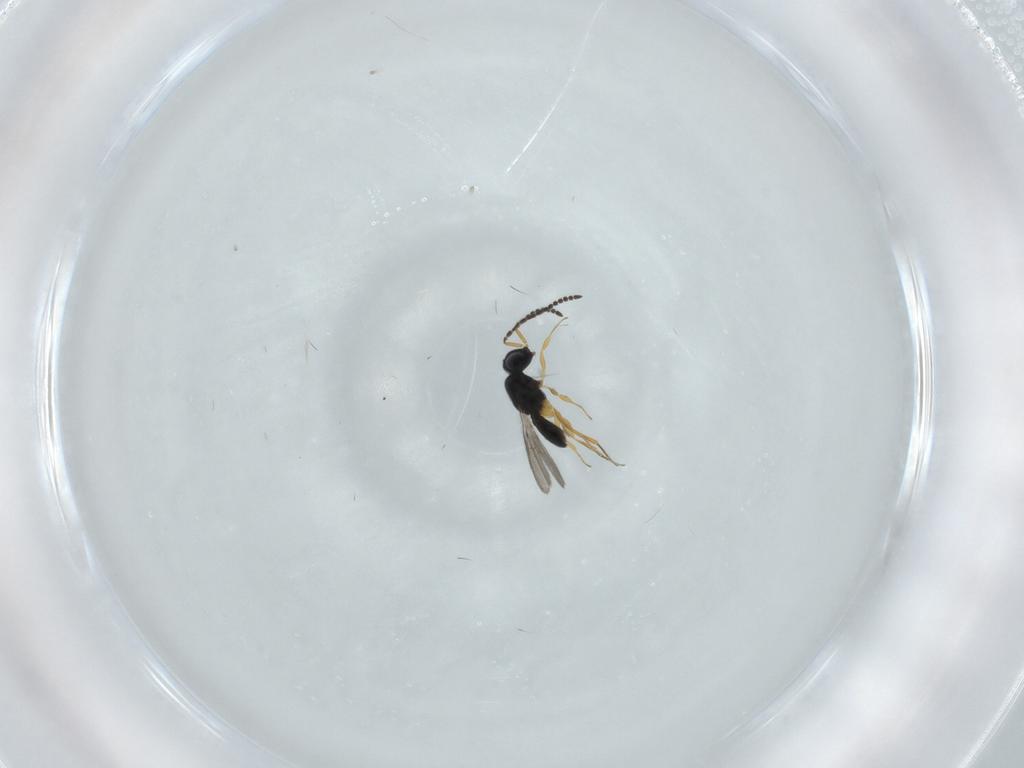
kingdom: Animalia
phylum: Arthropoda
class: Insecta
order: Hymenoptera
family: Scelionidae
